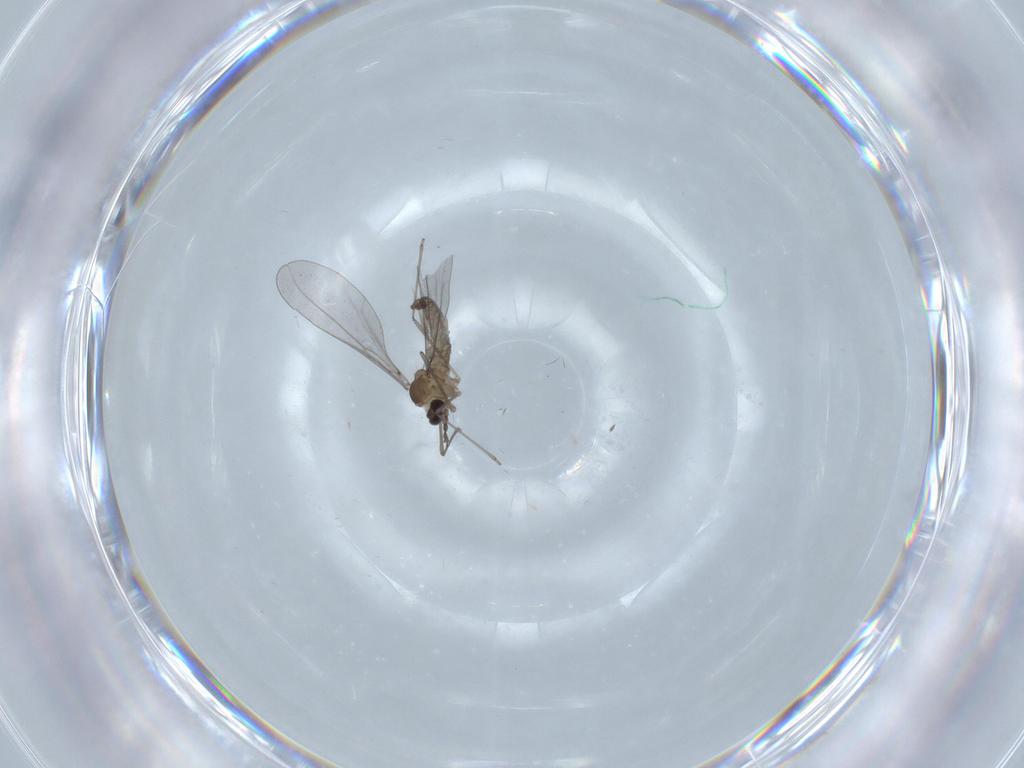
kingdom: Animalia
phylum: Arthropoda
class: Insecta
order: Diptera
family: Cecidomyiidae
